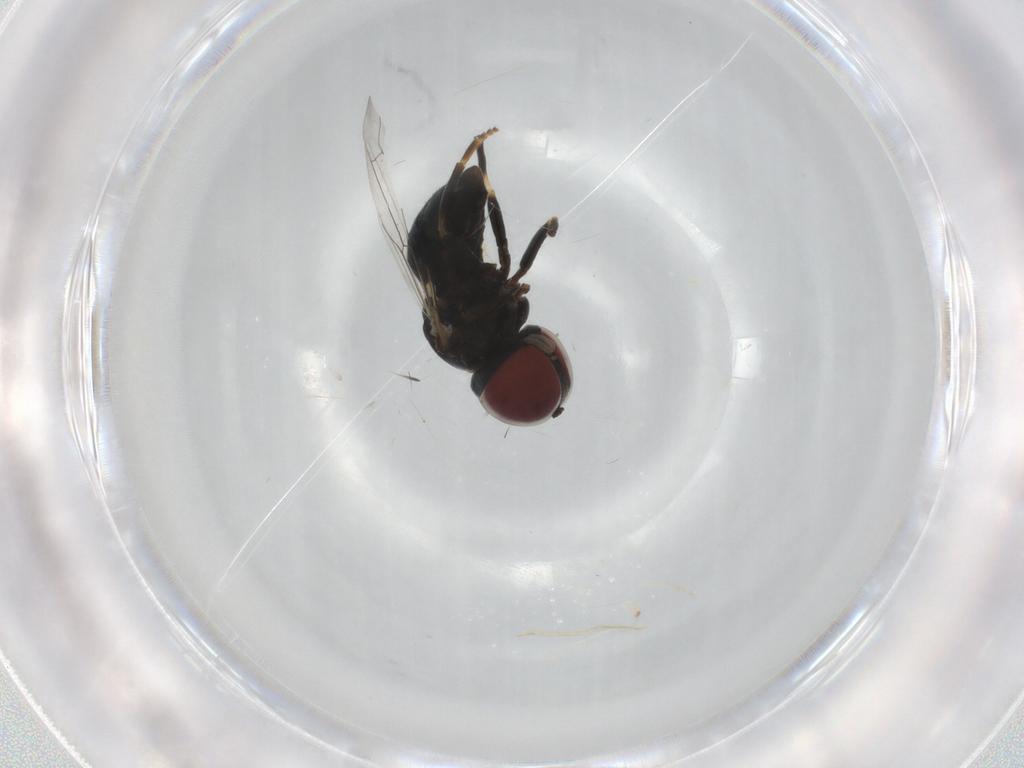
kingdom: Animalia
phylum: Arthropoda
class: Insecta
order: Diptera
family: Pipunculidae
